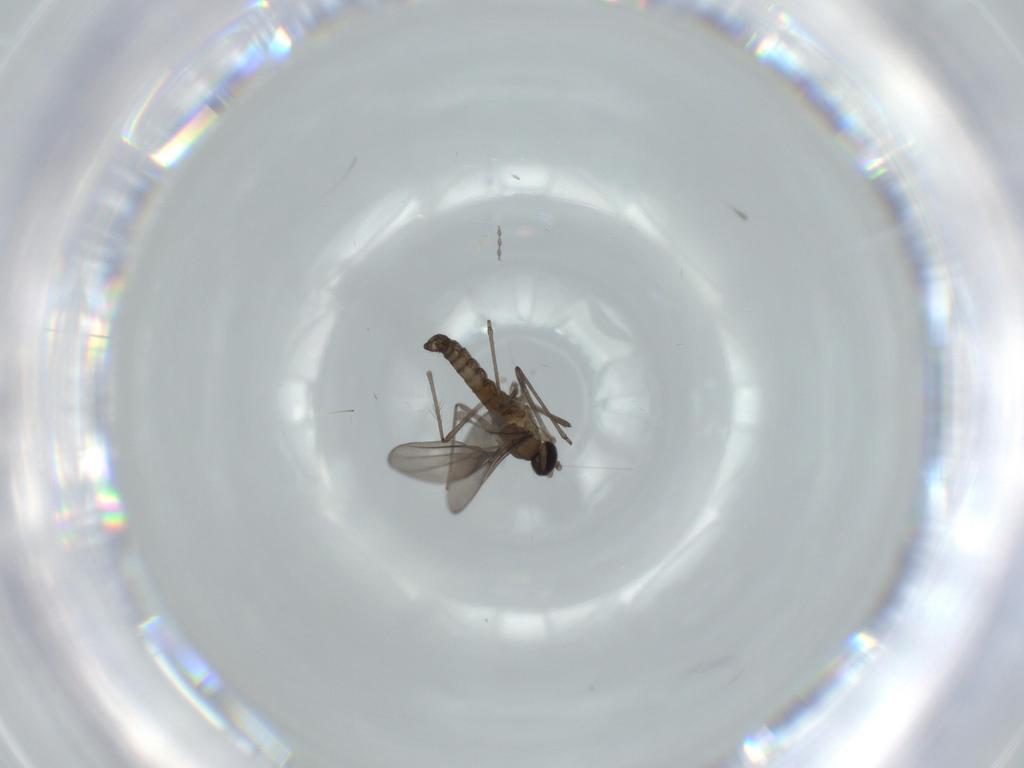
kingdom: Animalia
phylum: Arthropoda
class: Insecta
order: Diptera
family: Cecidomyiidae
